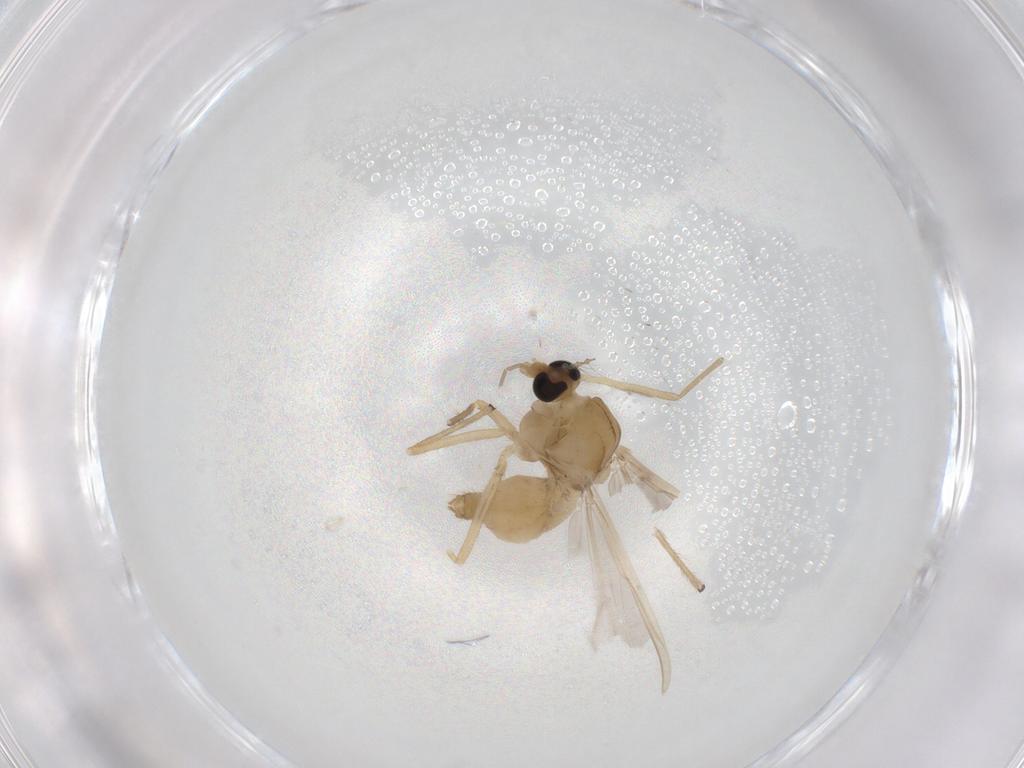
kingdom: Animalia
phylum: Arthropoda
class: Insecta
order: Diptera
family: Chironomidae
